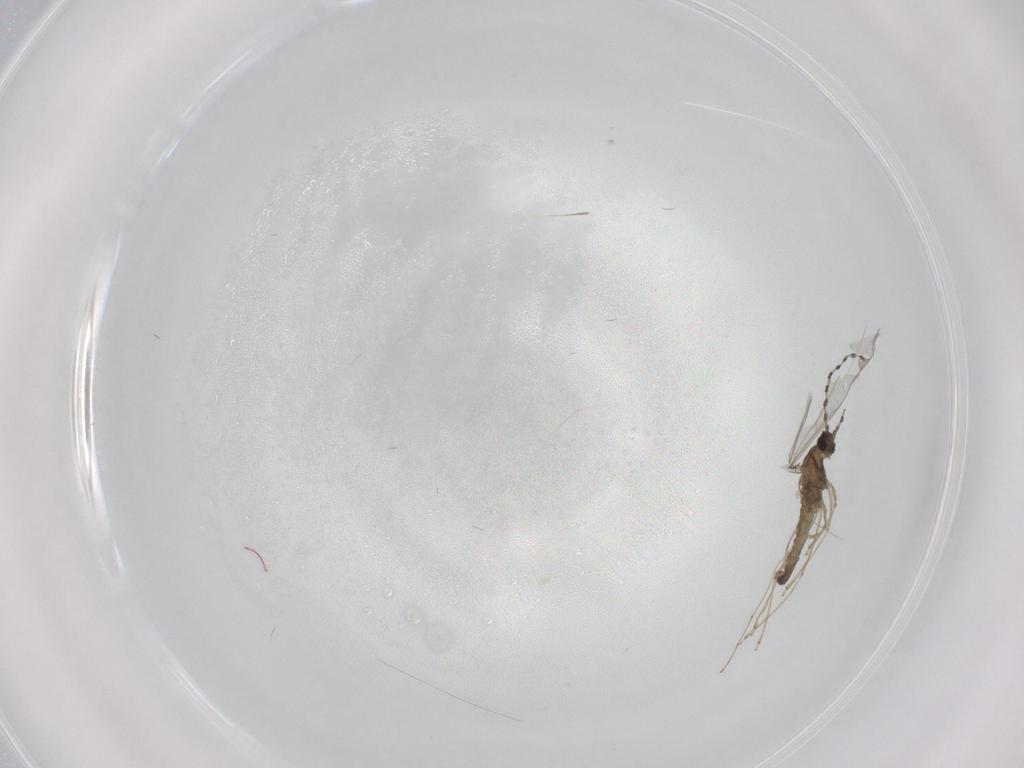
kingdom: Animalia
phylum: Arthropoda
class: Insecta
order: Diptera
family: Cecidomyiidae
